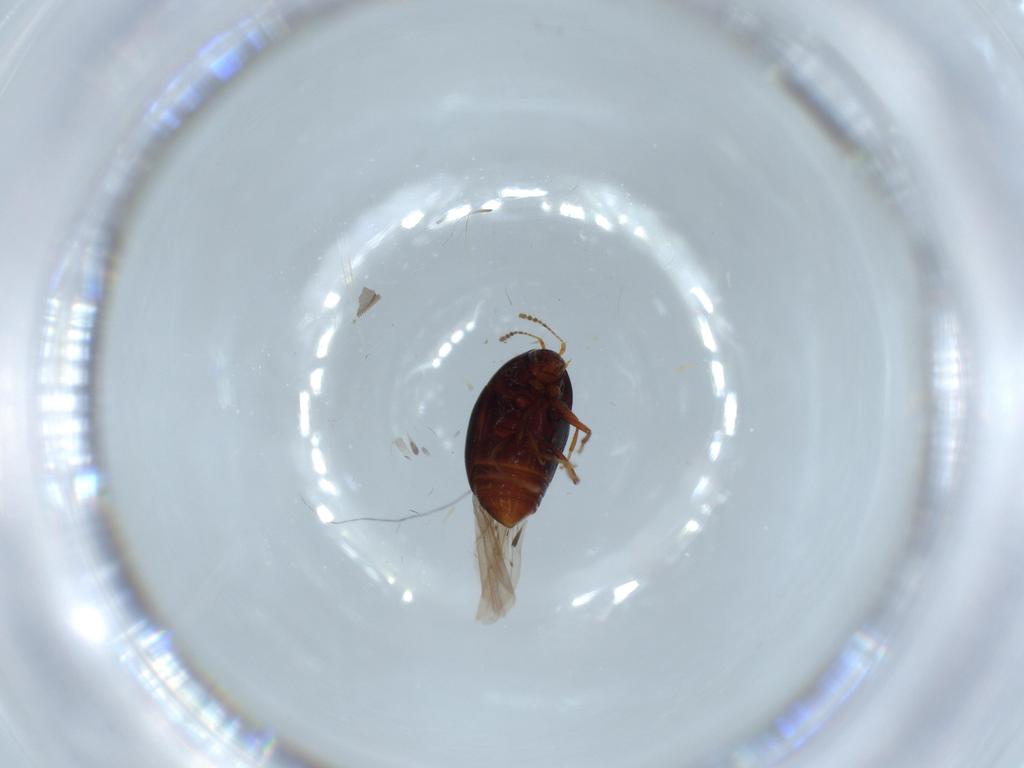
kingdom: Animalia
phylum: Arthropoda
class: Insecta
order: Coleoptera
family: Staphylinidae
